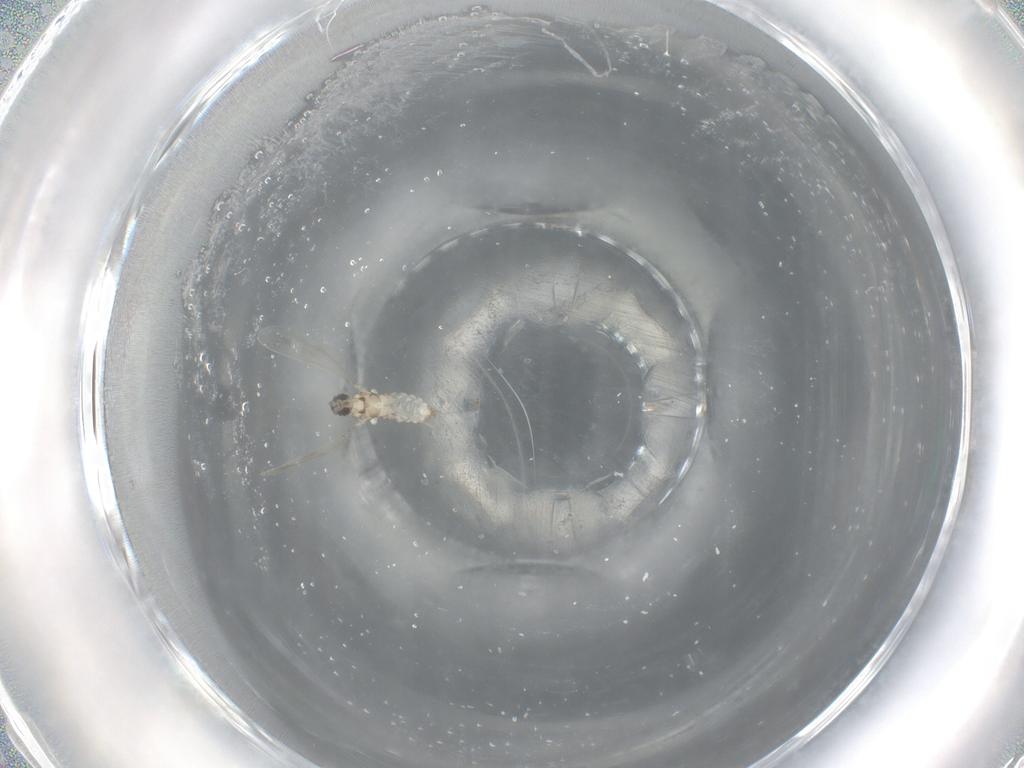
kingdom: Animalia
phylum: Arthropoda
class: Insecta
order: Diptera
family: Cecidomyiidae
